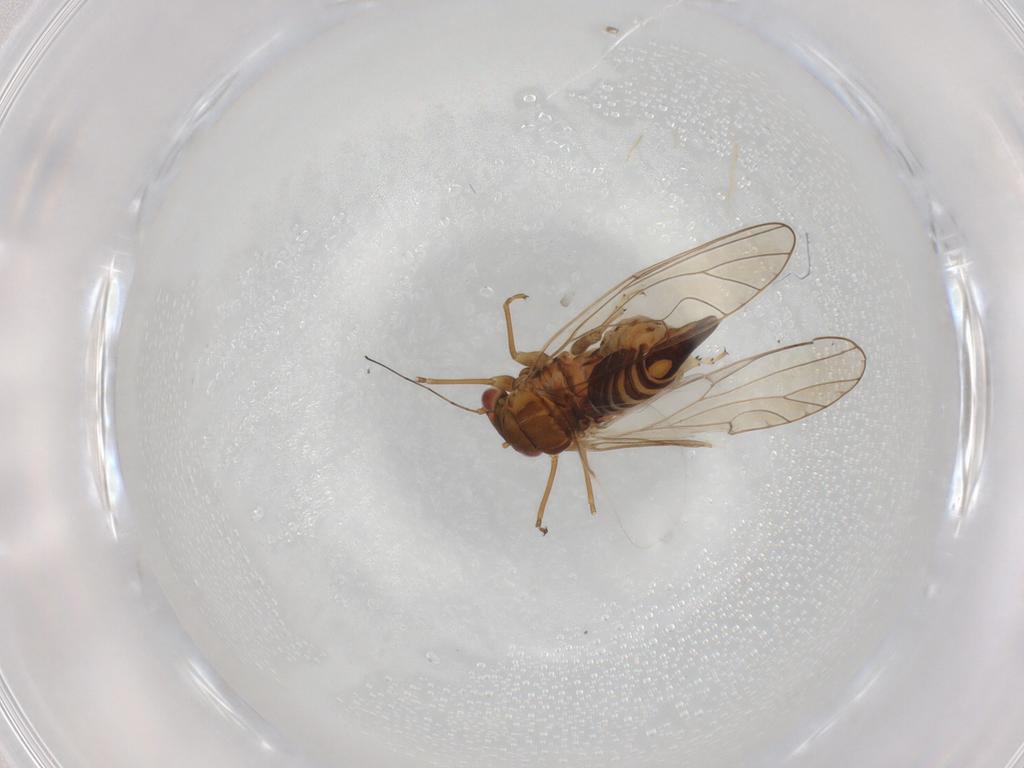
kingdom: Animalia
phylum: Arthropoda
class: Insecta
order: Hemiptera
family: Psyllidae
